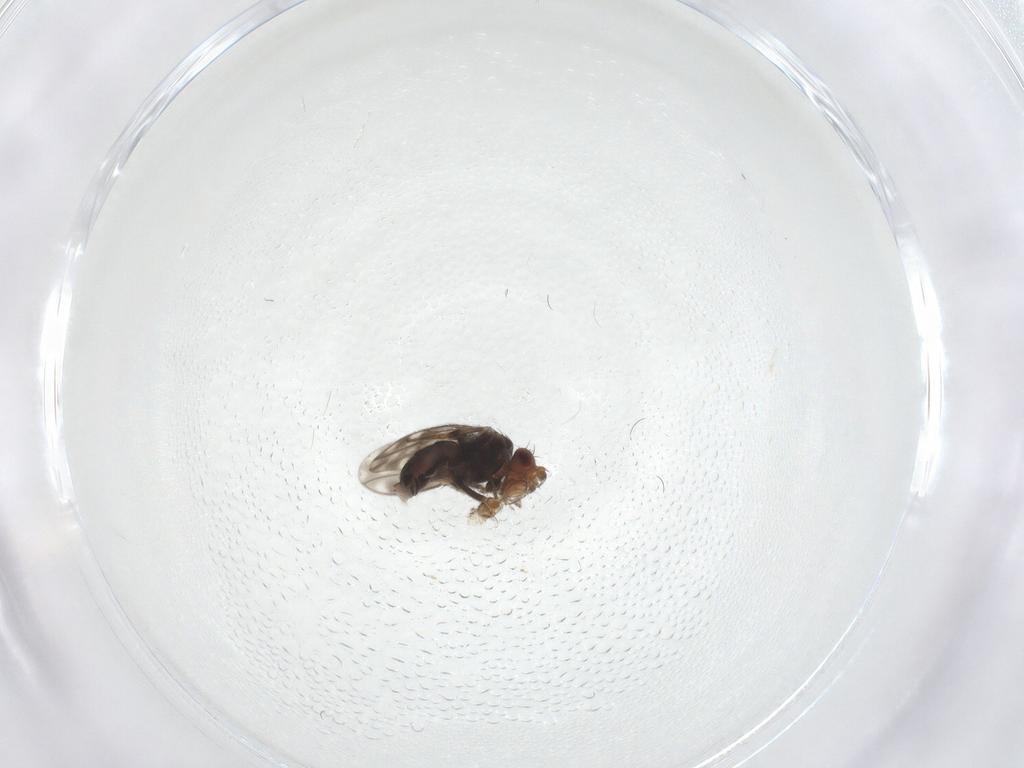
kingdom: Animalia
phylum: Arthropoda
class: Insecta
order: Diptera
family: Sphaeroceridae
